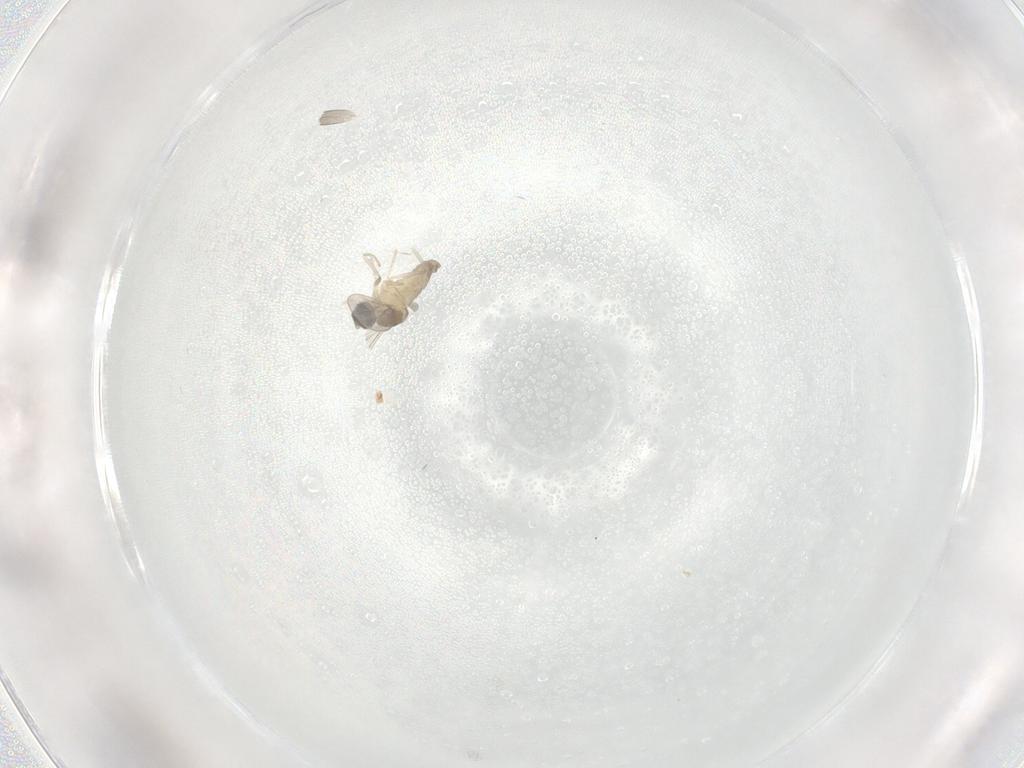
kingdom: Animalia
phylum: Arthropoda
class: Insecta
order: Diptera
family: Cecidomyiidae
